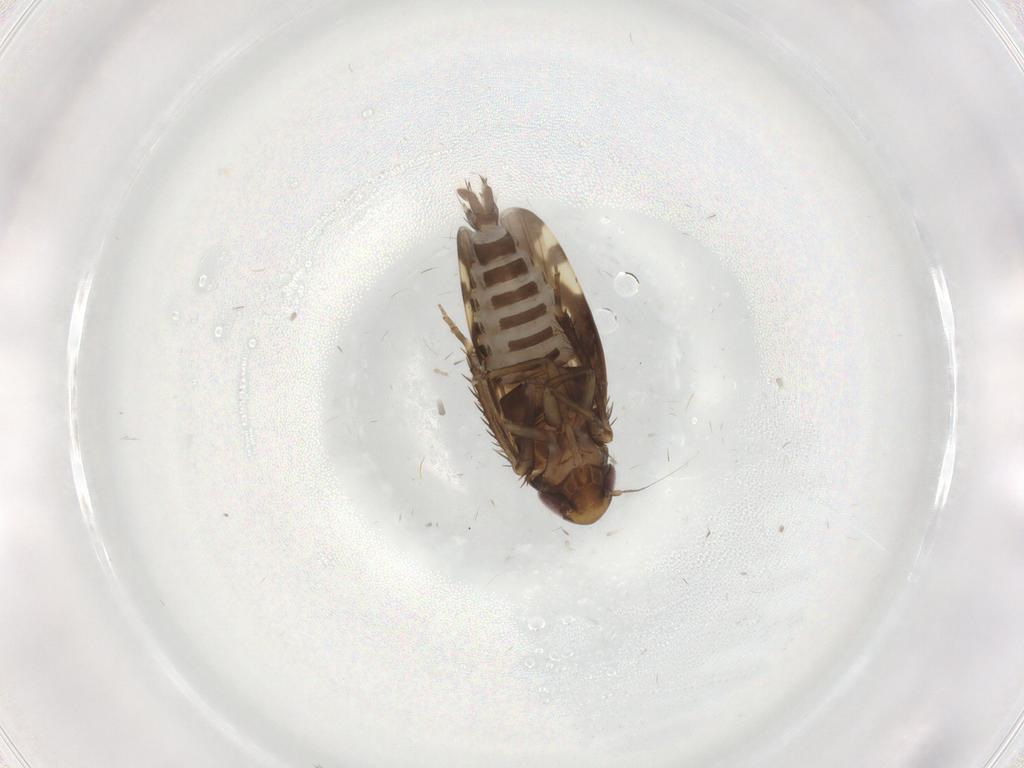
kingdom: Animalia
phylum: Arthropoda
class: Insecta
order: Hemiptera
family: Cicadellidae
